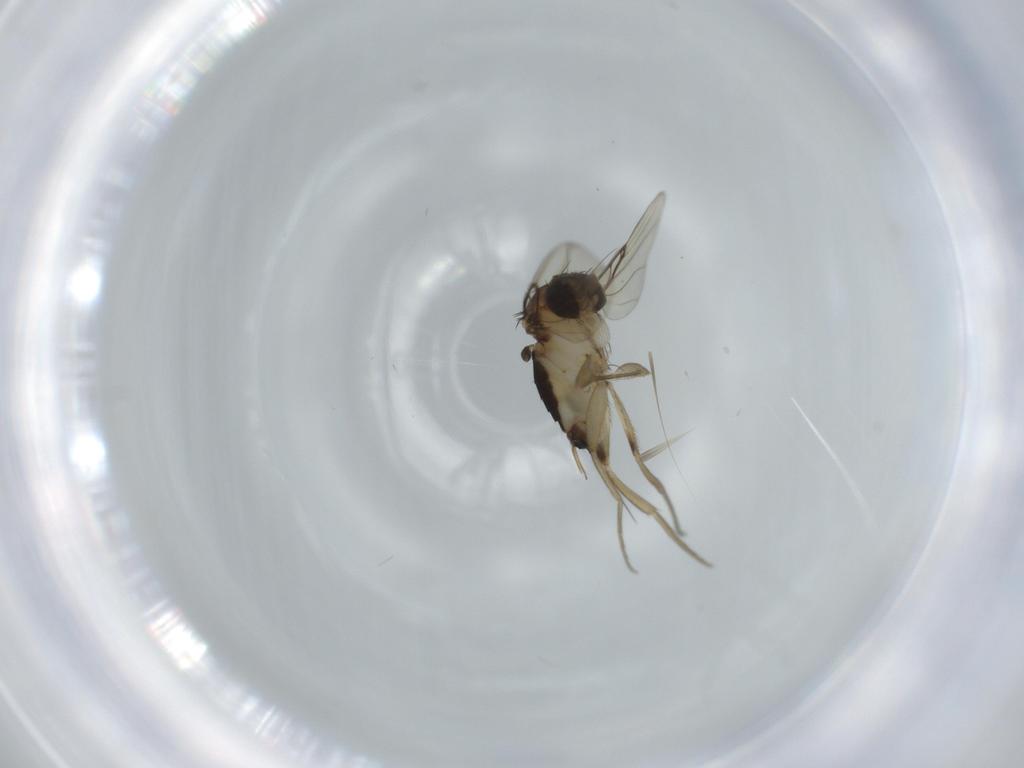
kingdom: Animalia
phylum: Arthropoda
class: Insecta
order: Diptera
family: Phoridae
